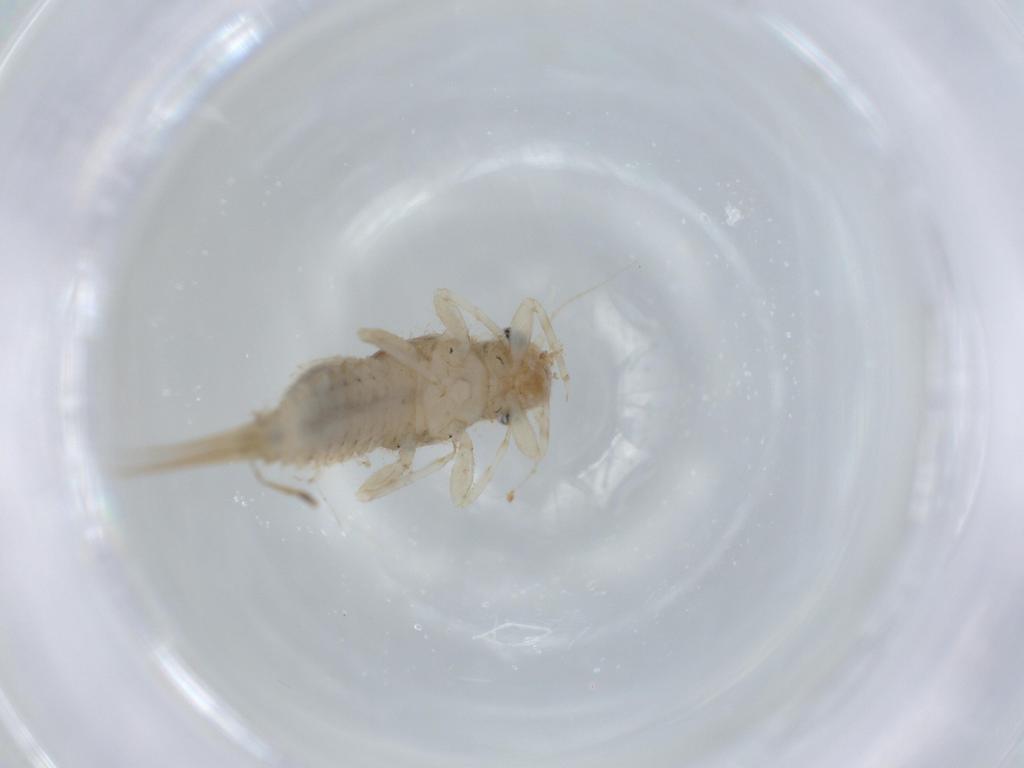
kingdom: Animalia
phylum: Arthropoda
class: Insecta
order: Ephemeroptera
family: Caenidae
